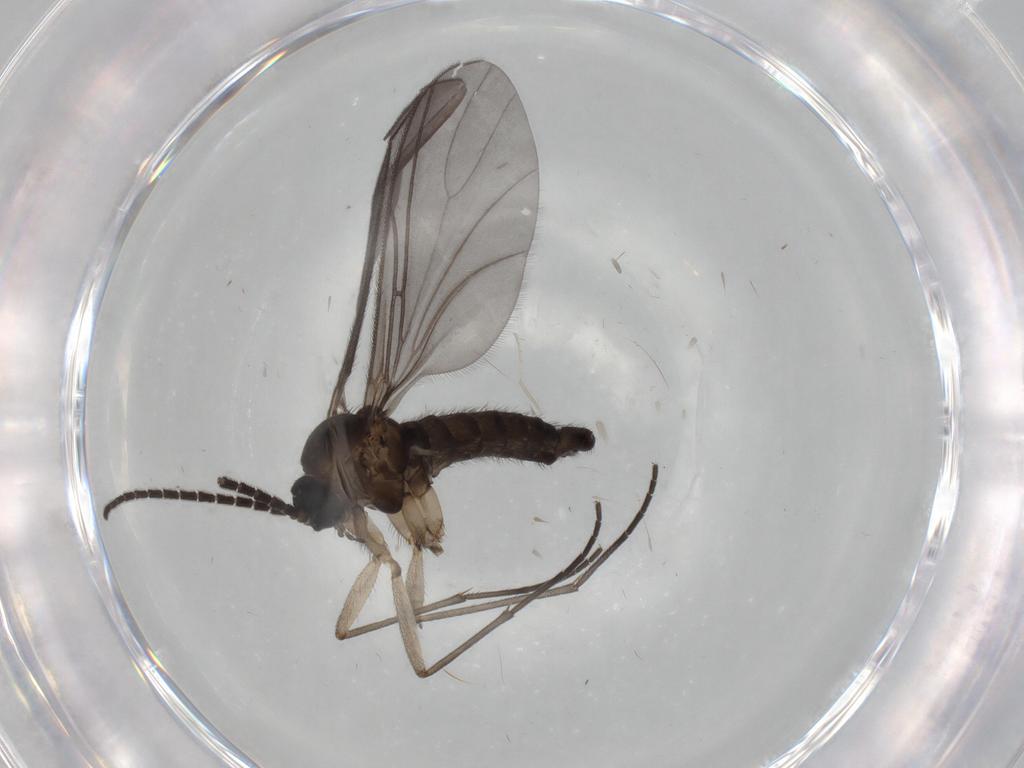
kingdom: Animalia
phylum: Arthropoda
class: Insecta
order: Diptera
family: Sciaridae
